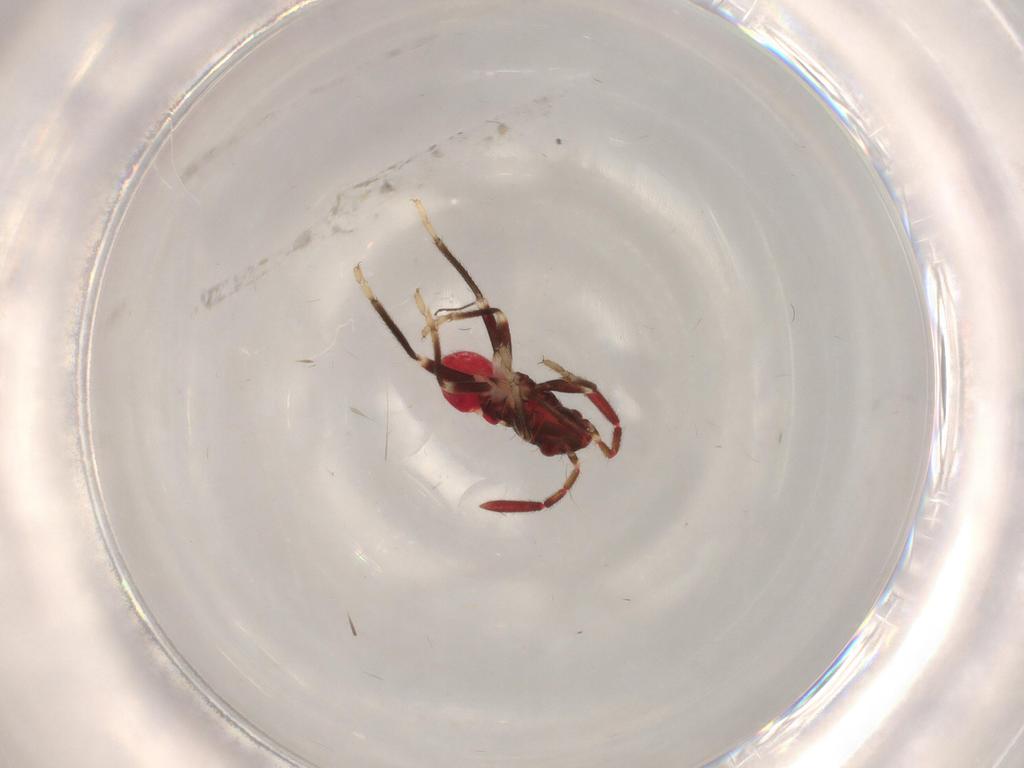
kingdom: Animalia
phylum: Arthropoda
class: Insecta
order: Hemiptera
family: Rhyparochromidae
